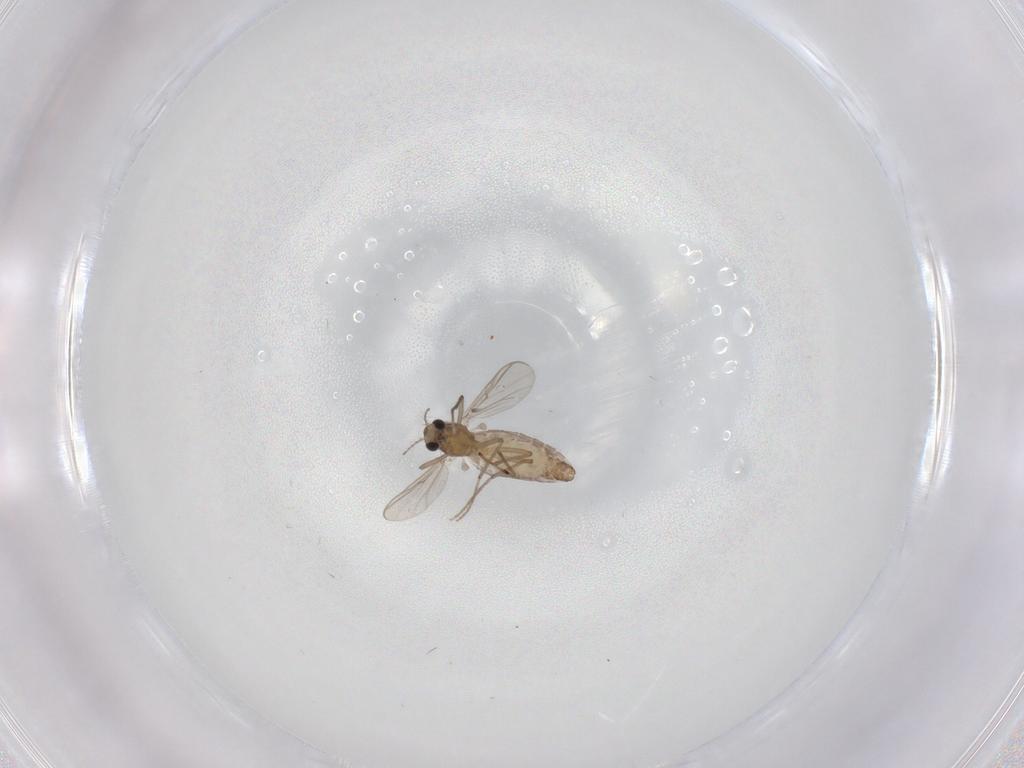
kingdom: Animalia
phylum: Arthropoda
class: Insecta
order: Diptera
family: Chironomidae
